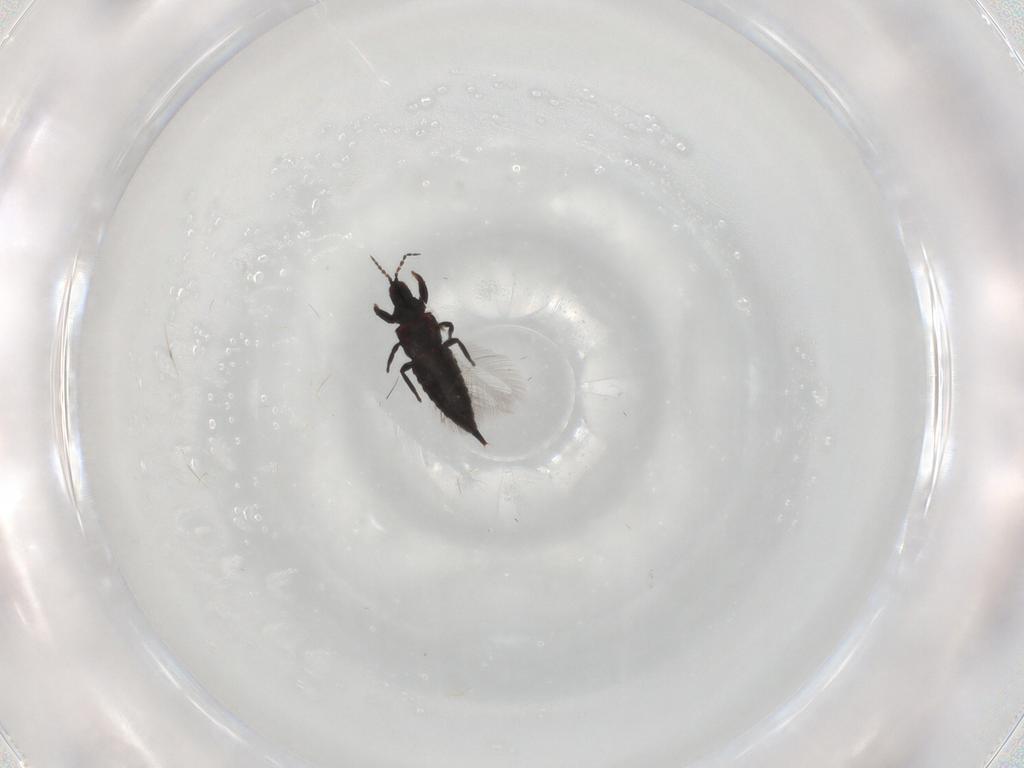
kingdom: Animalia
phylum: Arthropoda
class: Insecta
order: Thysanoptera
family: Phlaeothripidae
